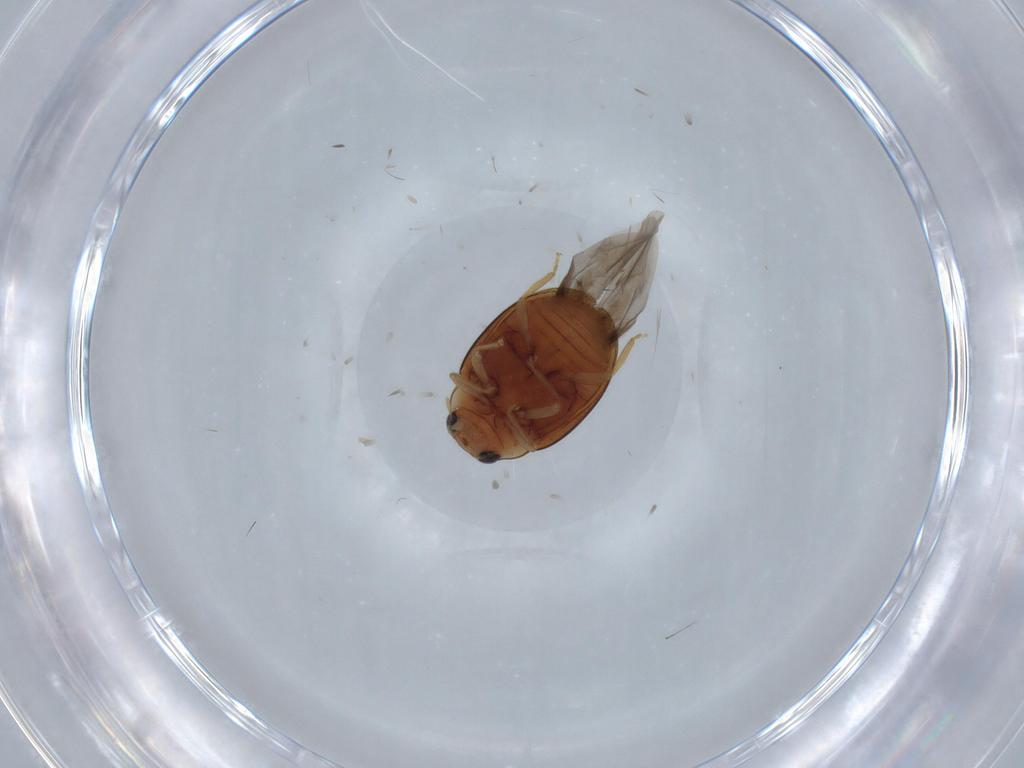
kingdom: Animalia
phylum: Arthropoda
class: Insecta
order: Coleoptera
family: Coccinellidae
